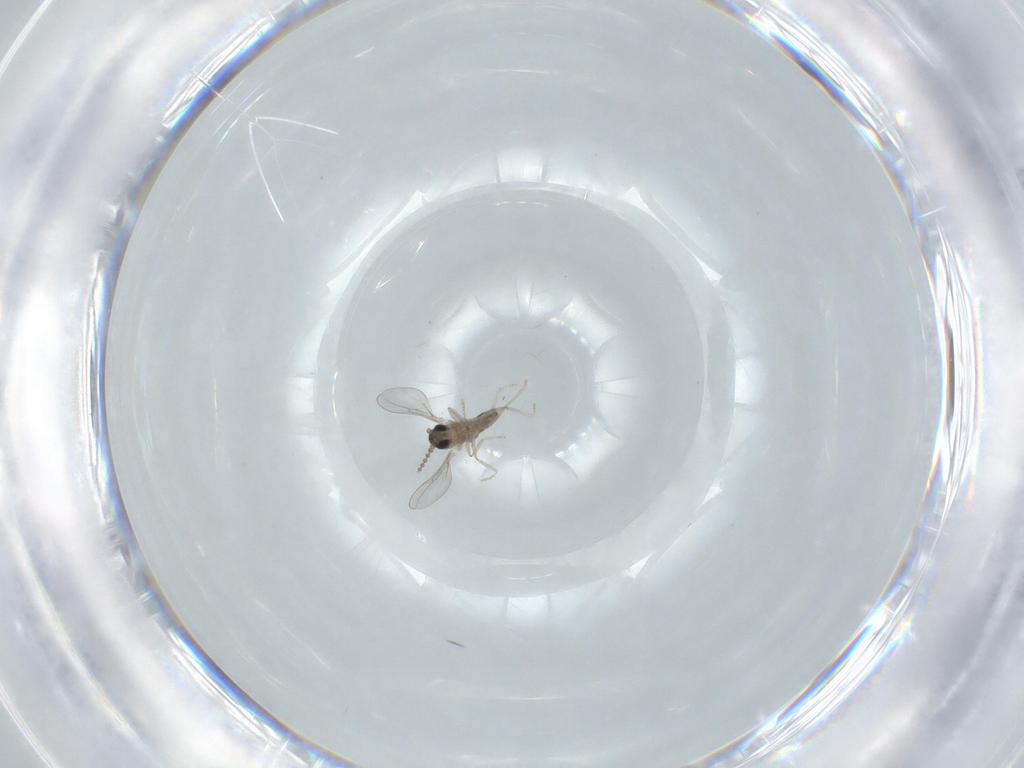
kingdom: Animalia
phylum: Arthropoda
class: Insecta
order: Diptera
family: Cecidomyiidae
